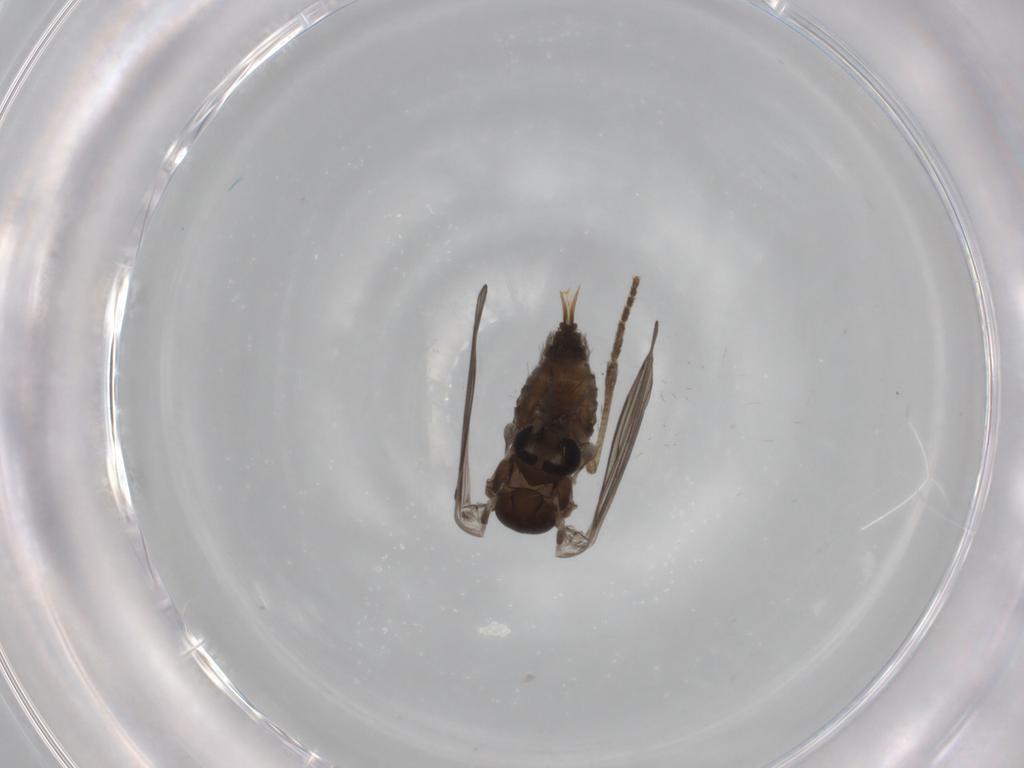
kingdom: Animalia
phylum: Arthropoda
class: Insecta
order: Diptera
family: Psychodidae
